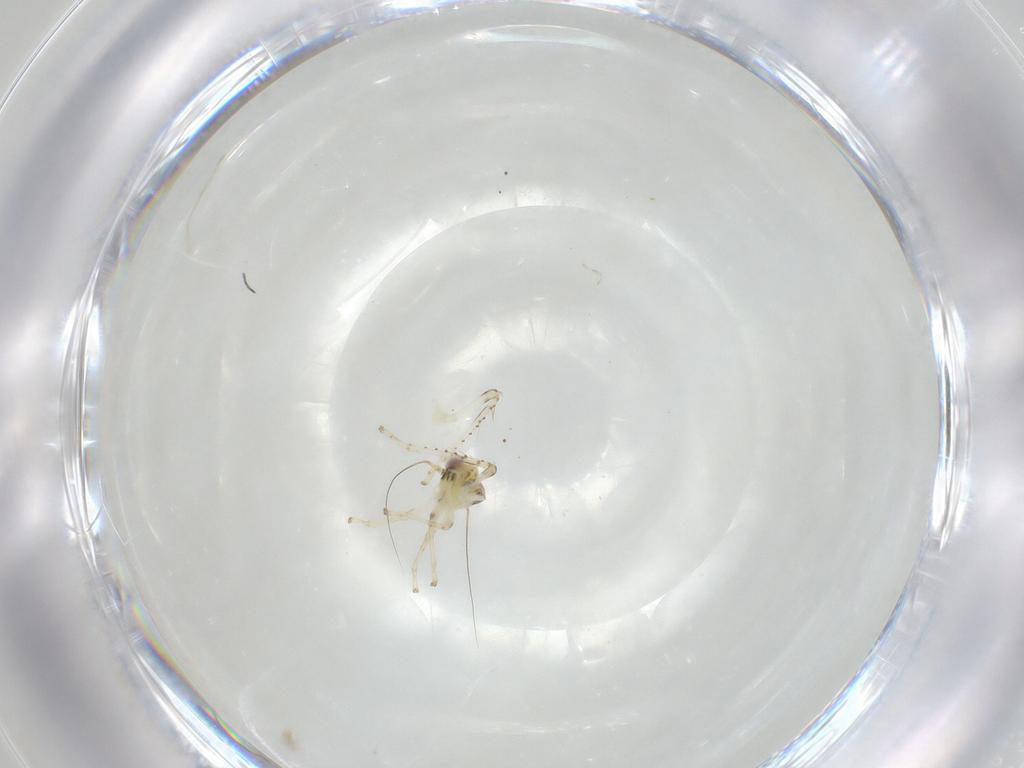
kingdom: Animalia
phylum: Arthropoda
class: Insecta
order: Hemiptera
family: Cicadellidae
